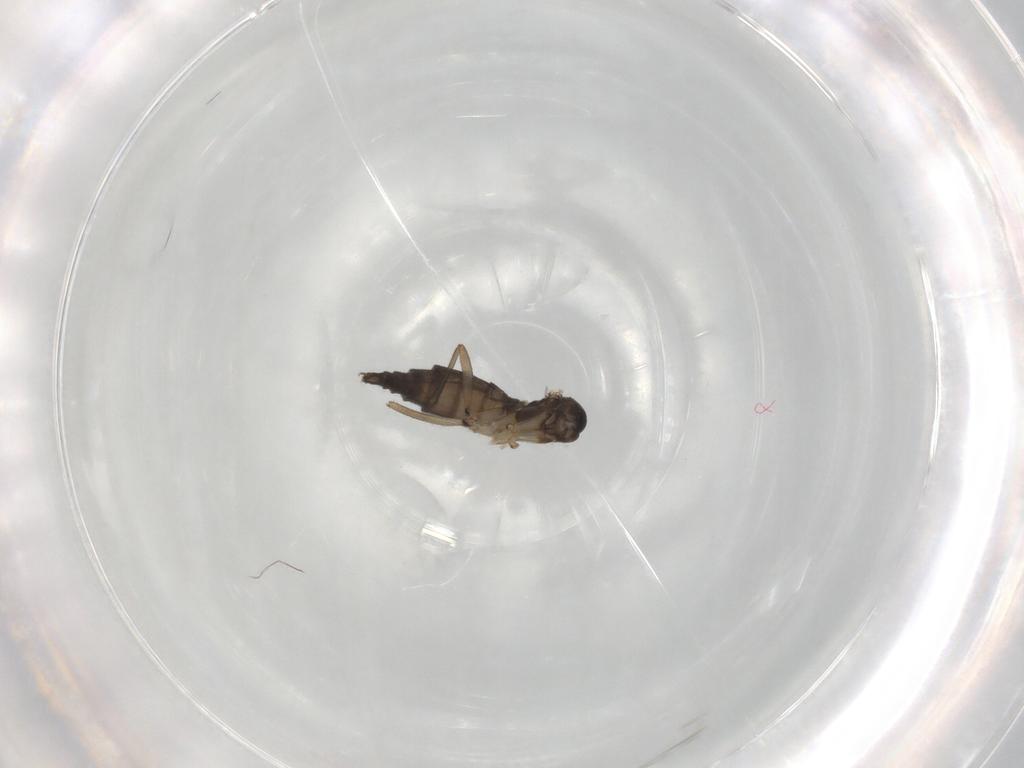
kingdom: Animalia
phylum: Arthropoda
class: Insecta
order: Diptera
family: Sciaridae
